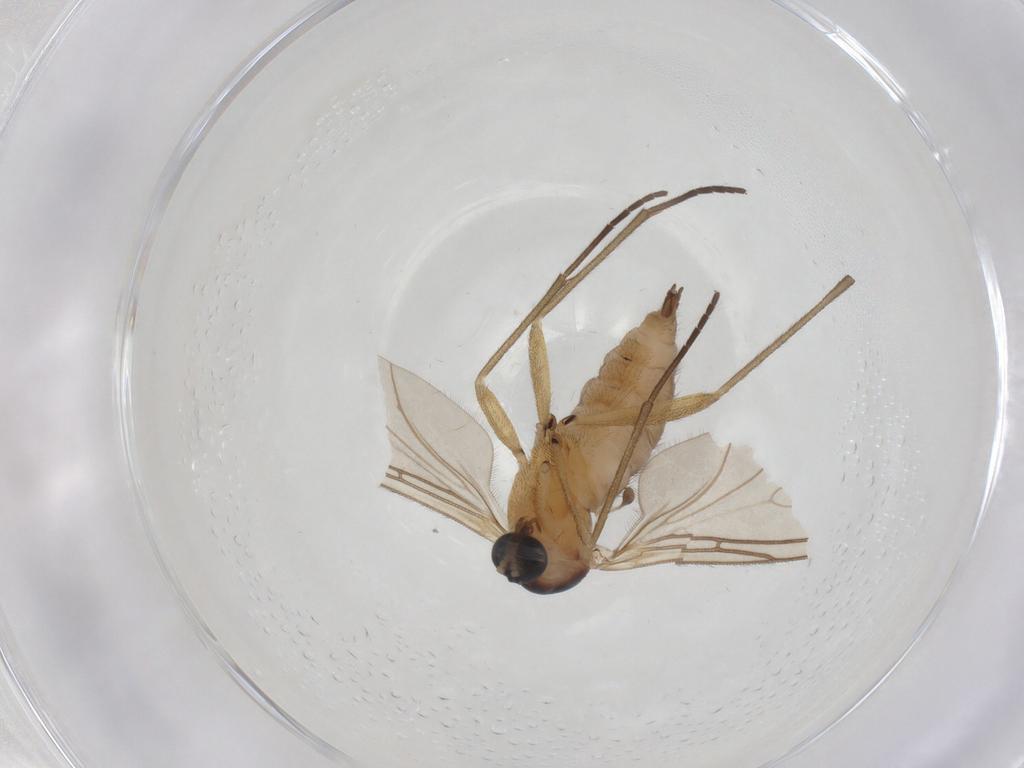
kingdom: Animalia
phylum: Arthropoda
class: Insecta
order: Diptera
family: Sciaridae
